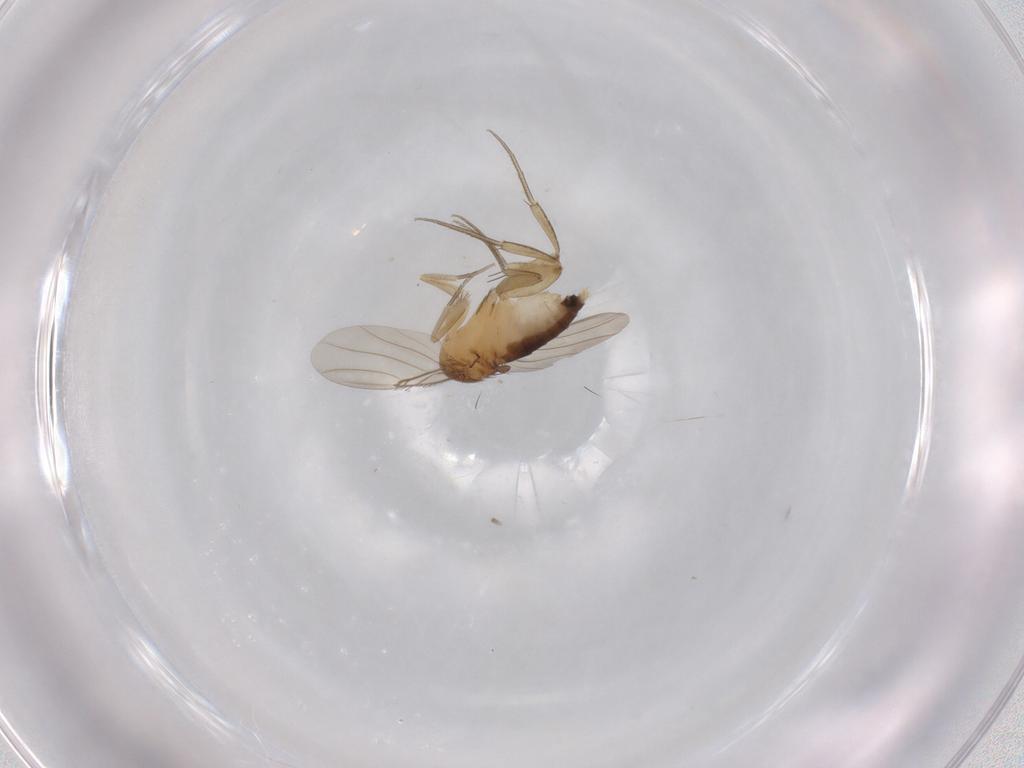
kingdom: Animalia
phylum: Arthropoda
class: Insecta
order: Diptera
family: Phoridae
